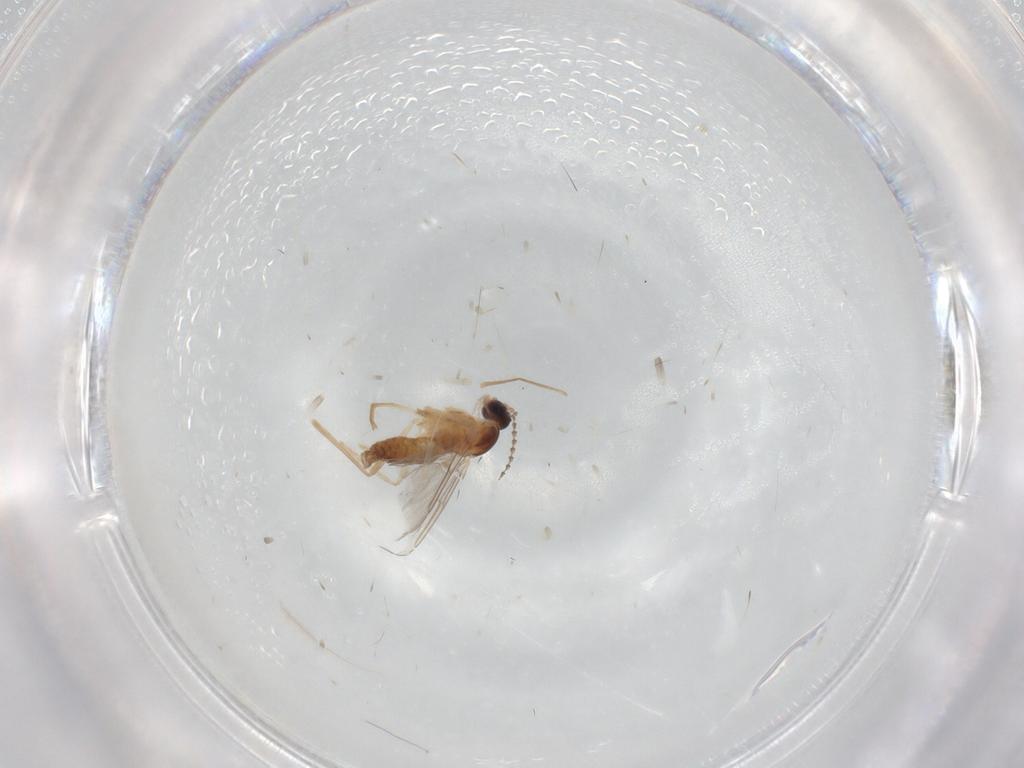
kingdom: Animalia
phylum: Arthropoda
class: Insecta
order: Diptera
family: Cecidomyiidae
